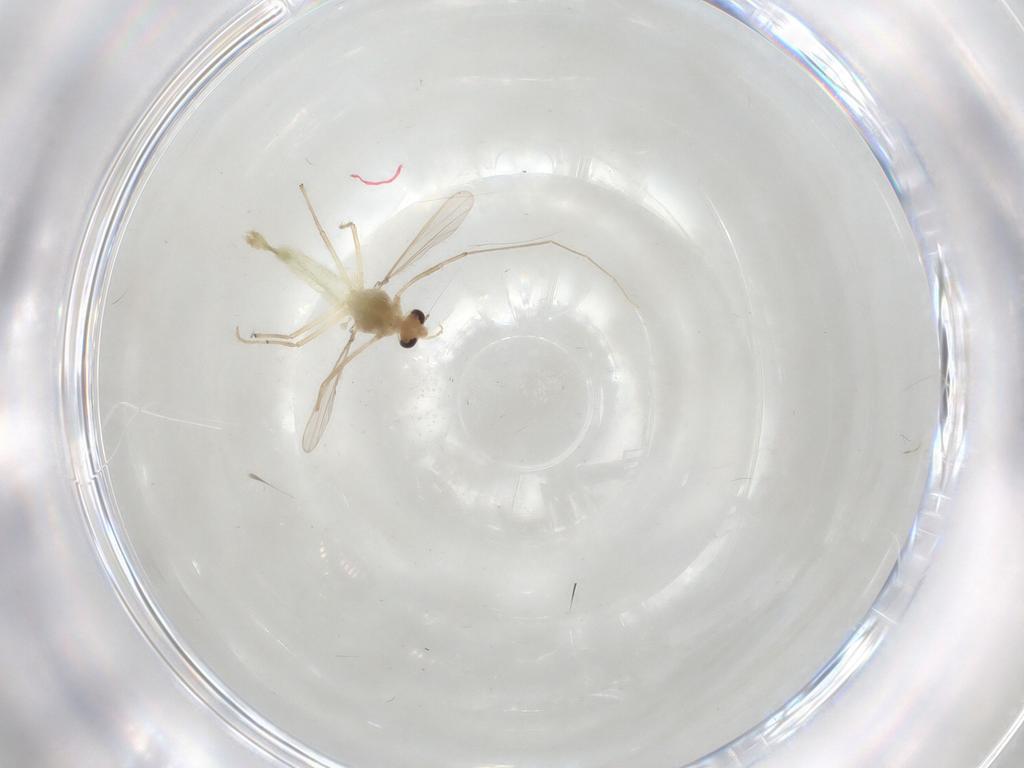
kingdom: Animalia
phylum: Arthropoda
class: Insecta
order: Diptera
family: Chironomidae
